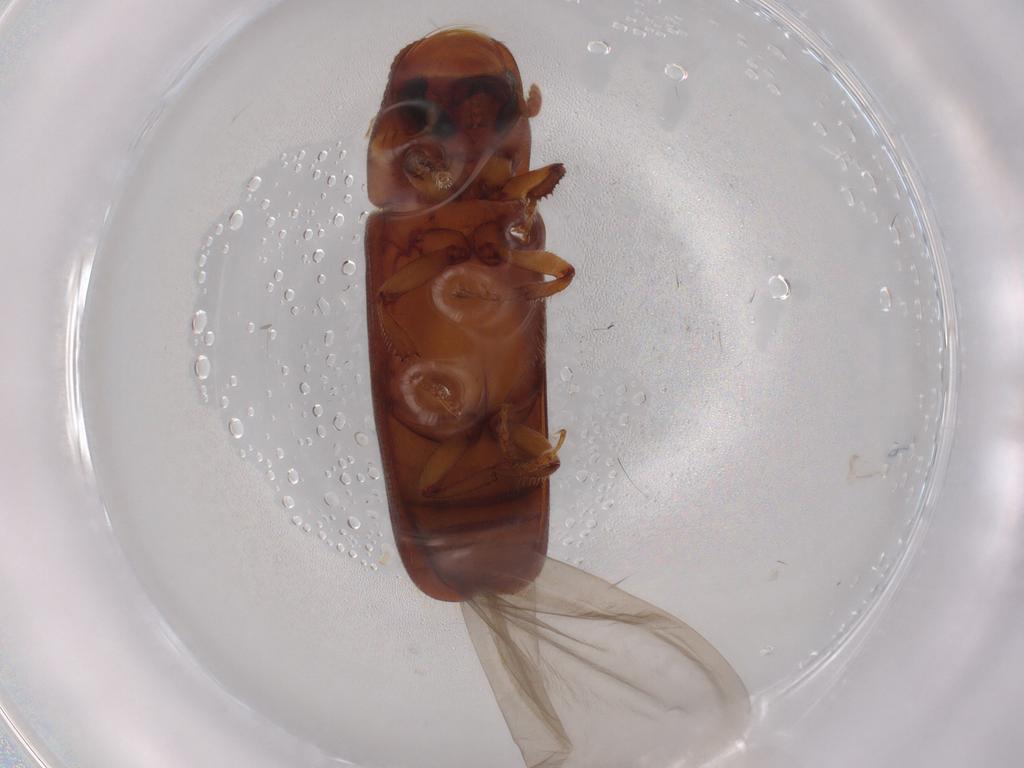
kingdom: Animalia
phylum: Arthropoda
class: Insecta
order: Coleoptera
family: Curculionidae
